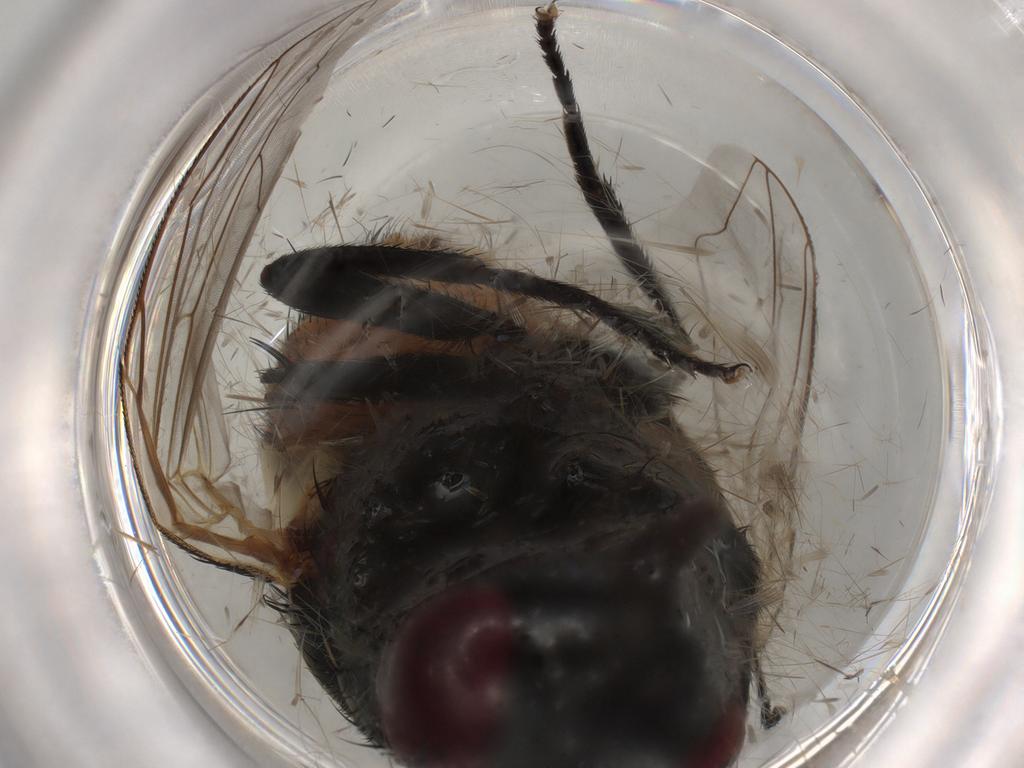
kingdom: Animalia
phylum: Arthropoda
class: Insecta
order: Diptera
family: Muscidae
